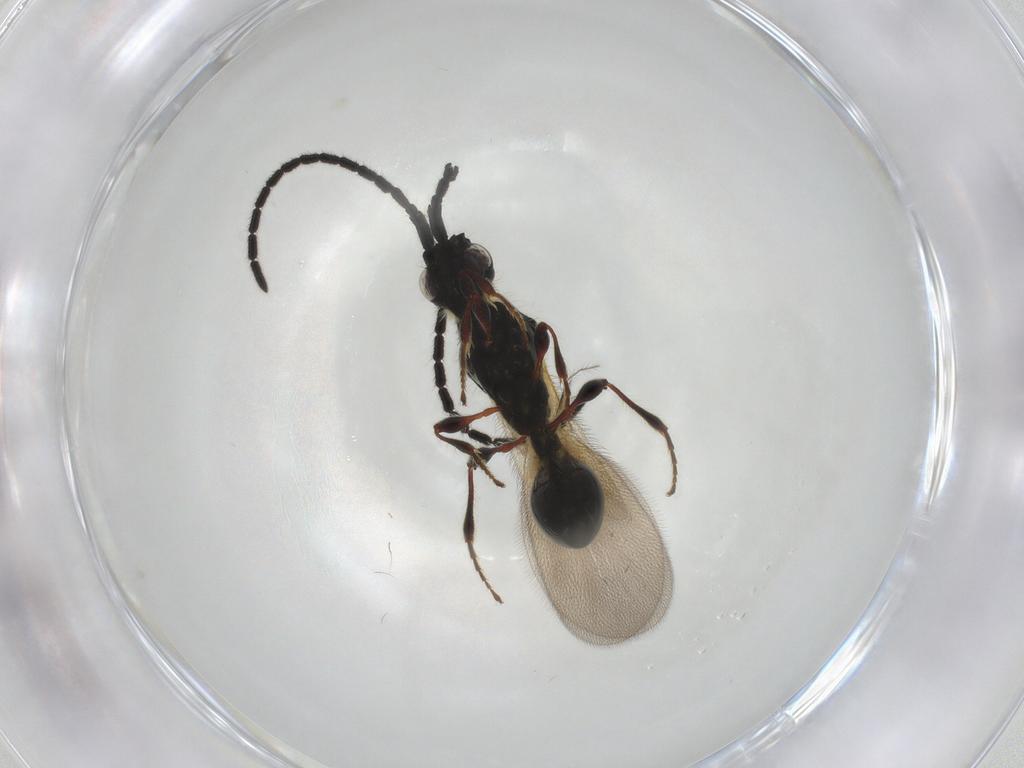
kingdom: Animalia
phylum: Arthropoda
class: Insecta
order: Hymenoptera
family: Diapriidae
